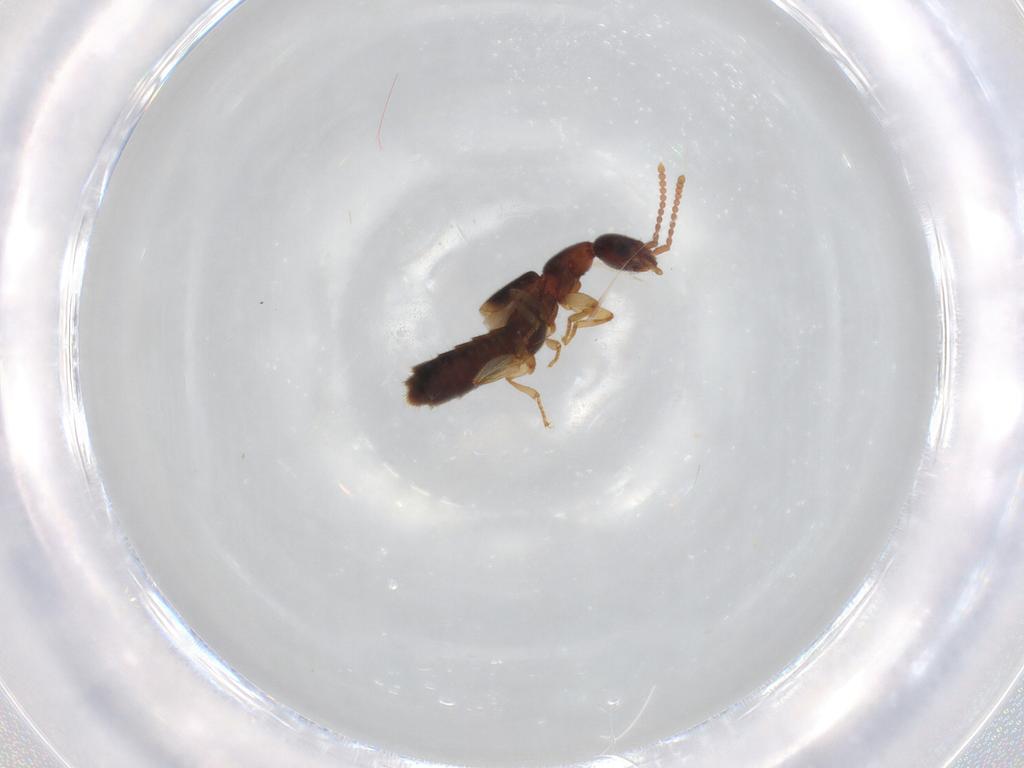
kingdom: Animalia
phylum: Arthropoda
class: Insecta
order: Coleoptera
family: Staphylinidae
